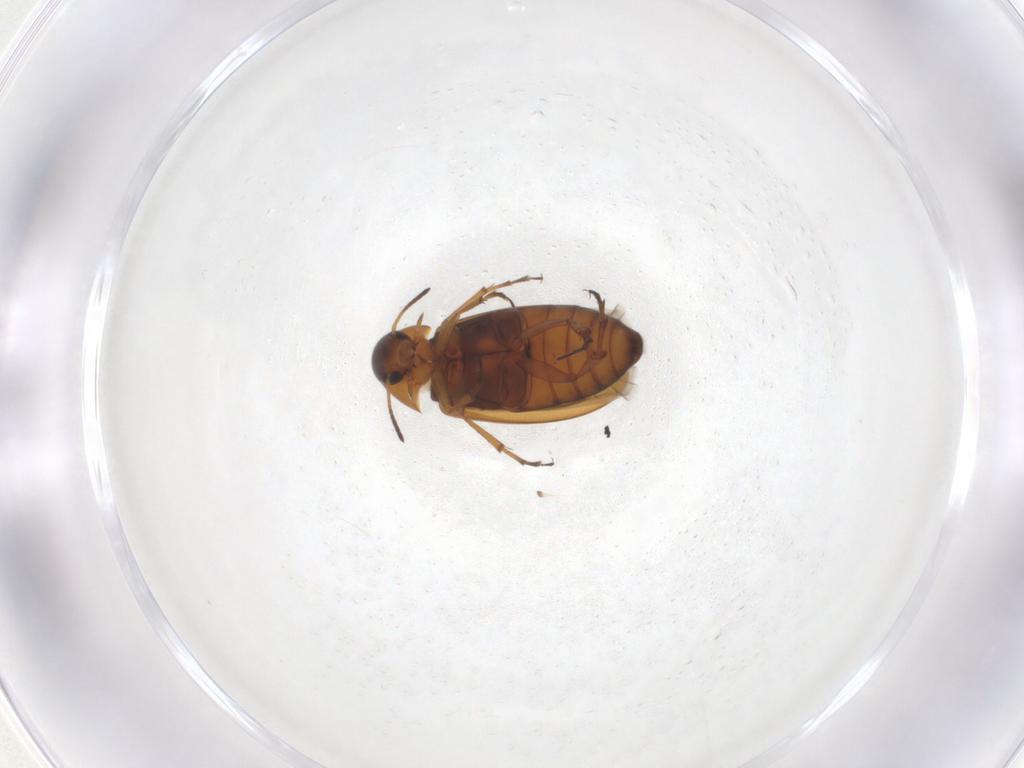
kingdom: Animalia
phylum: Arthropoda
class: Insecta
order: Coleoptera
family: Scraptiidae
